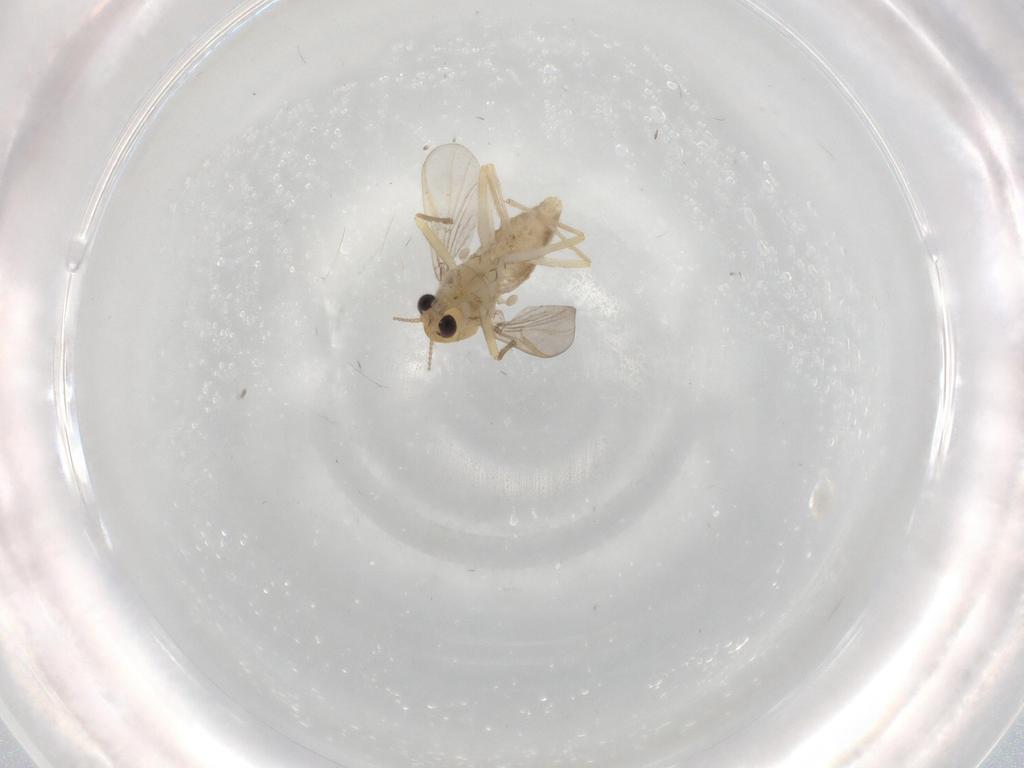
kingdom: Animalia
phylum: Arthropoda
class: Insecta
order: Diptera
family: Chironomidae
